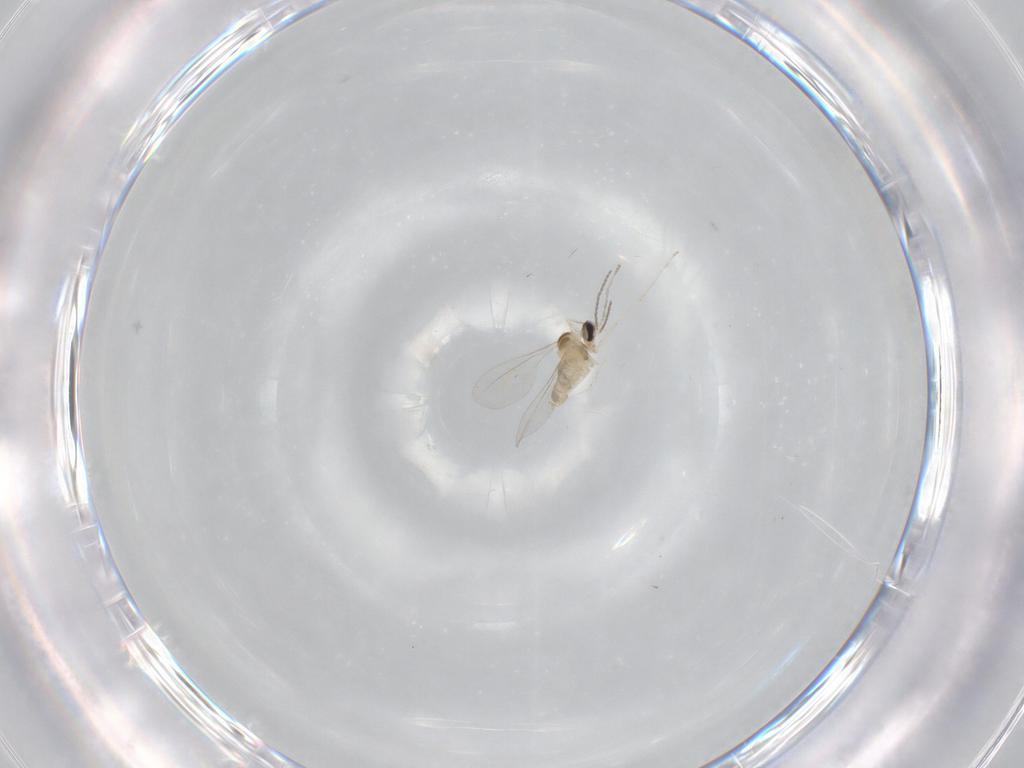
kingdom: Animalia
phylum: Arthropoda
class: Insecta
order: Diptera
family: Cecidomyiidae
